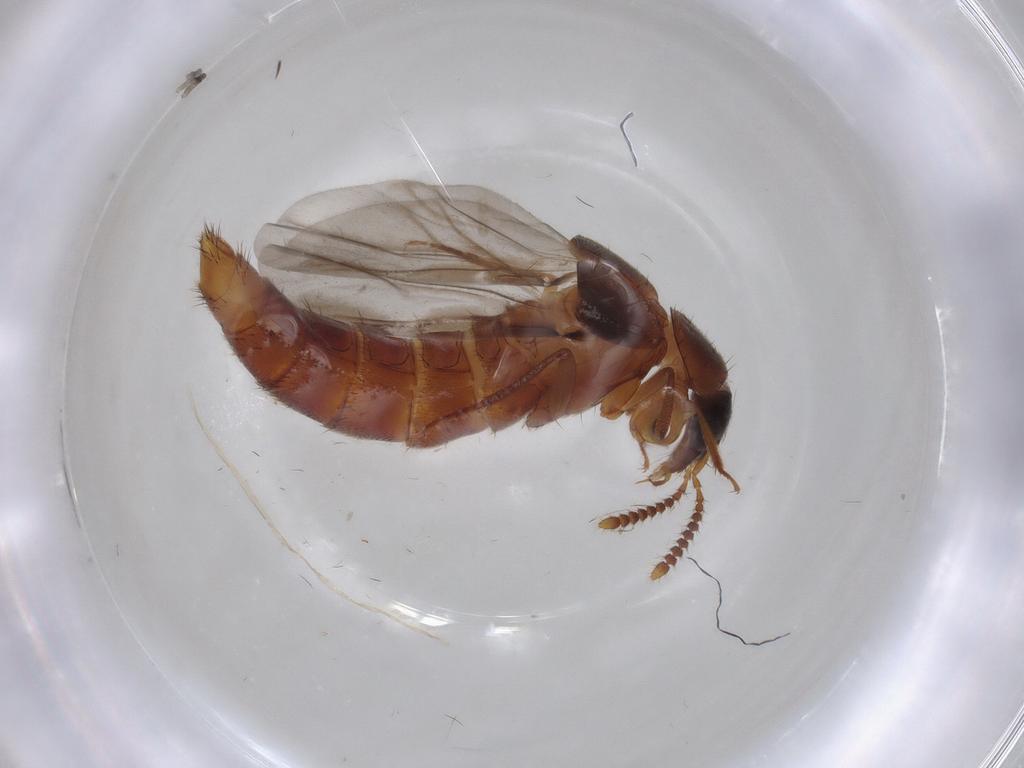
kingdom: Animalia
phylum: Arthropoda
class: Insecta
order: Coleoptera
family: Staphylinidae
